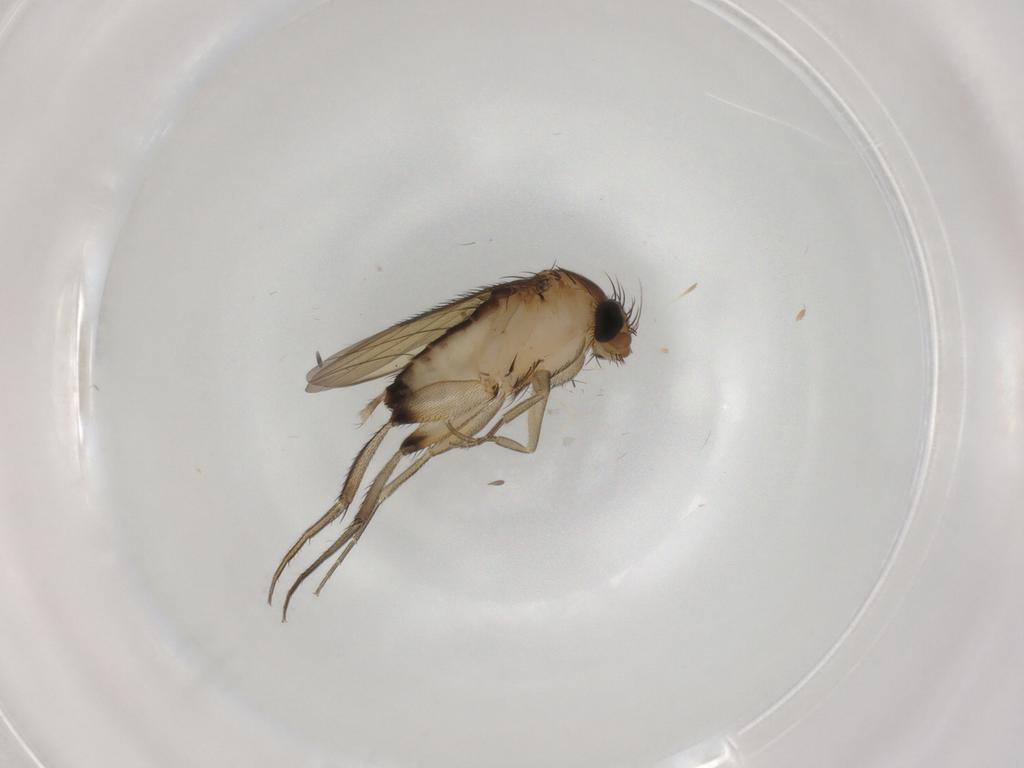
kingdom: Animalia
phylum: Arthropoda
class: Insecta
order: Diptera
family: Phoridae
